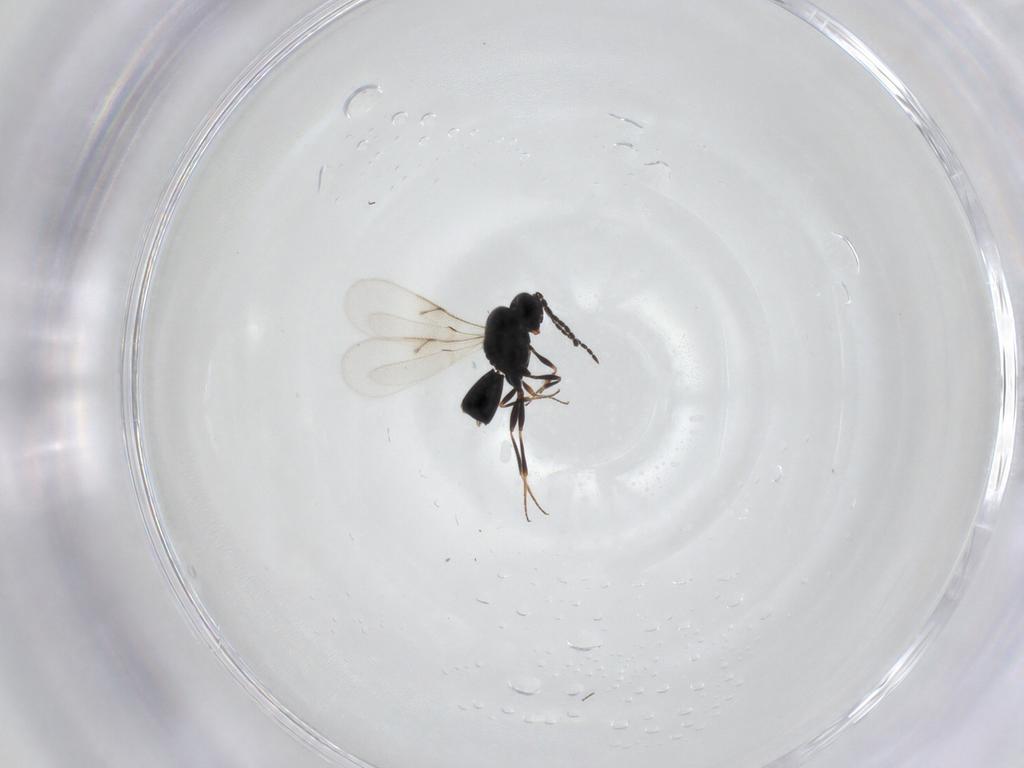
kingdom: Animalia
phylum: Arthropoda
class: Insecta
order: Hymenoptera
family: Scelionidae
